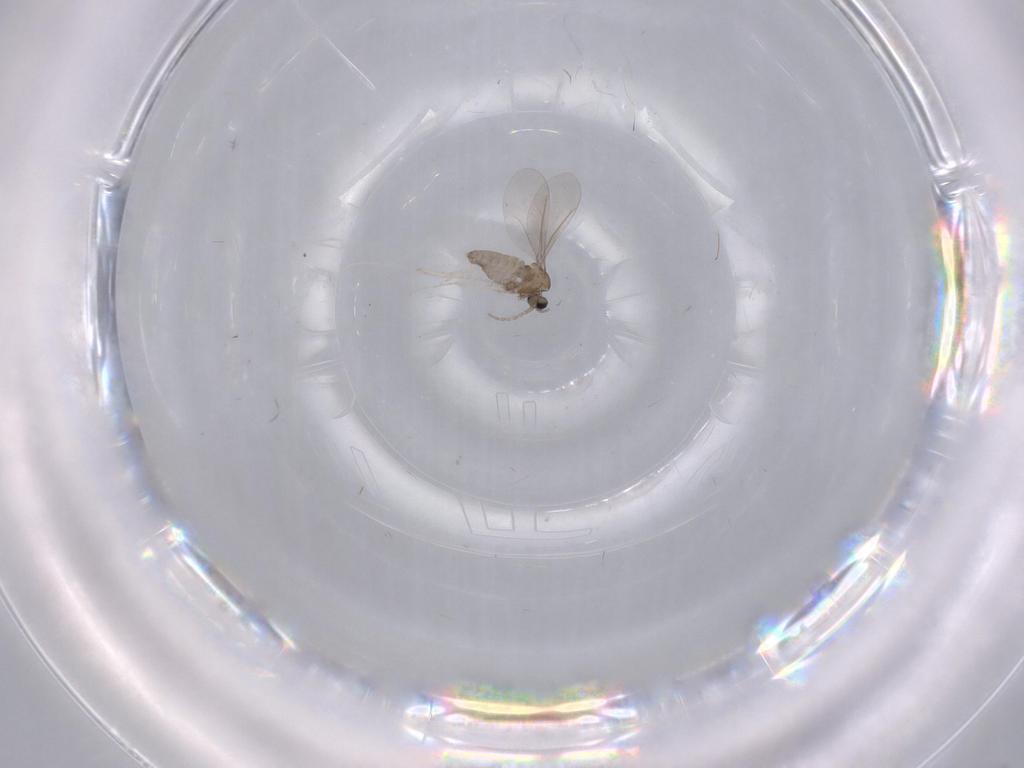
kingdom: Animalia
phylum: Arthropoda
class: Insecta
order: Diptera
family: Cecidomyiidae
